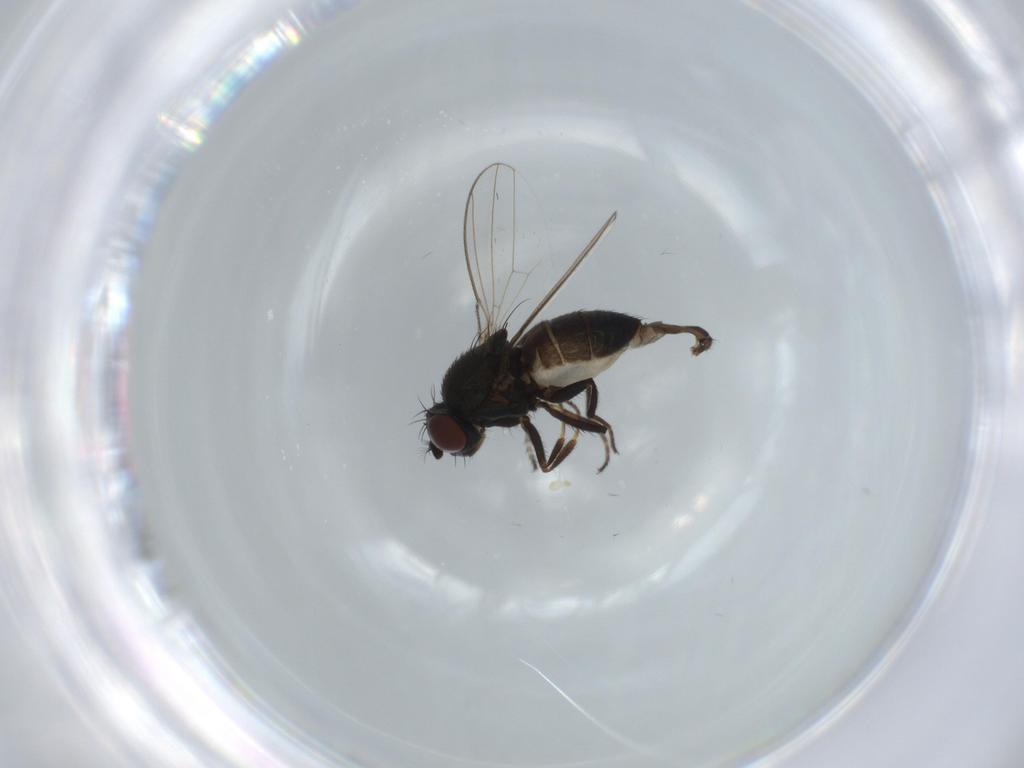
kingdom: Animalia
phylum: Arthropoda
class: Insecta
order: Diptera
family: Ephydridae
